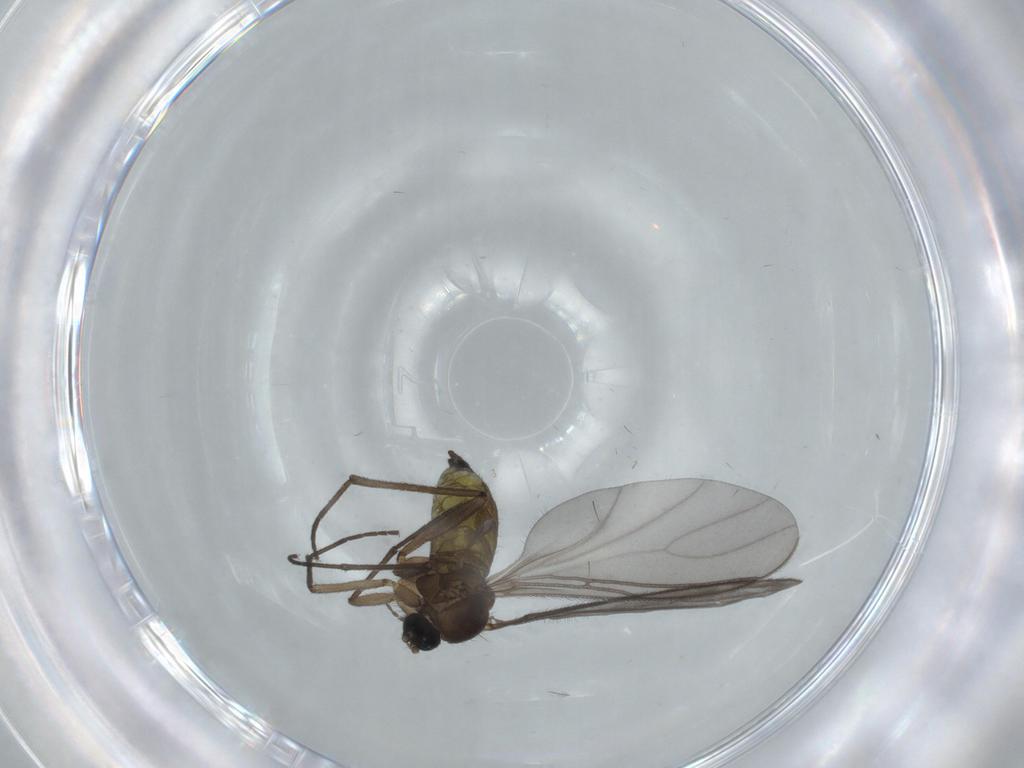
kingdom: Animalia
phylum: Arthropoda
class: Insecta
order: Diptera
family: Sciaridae
